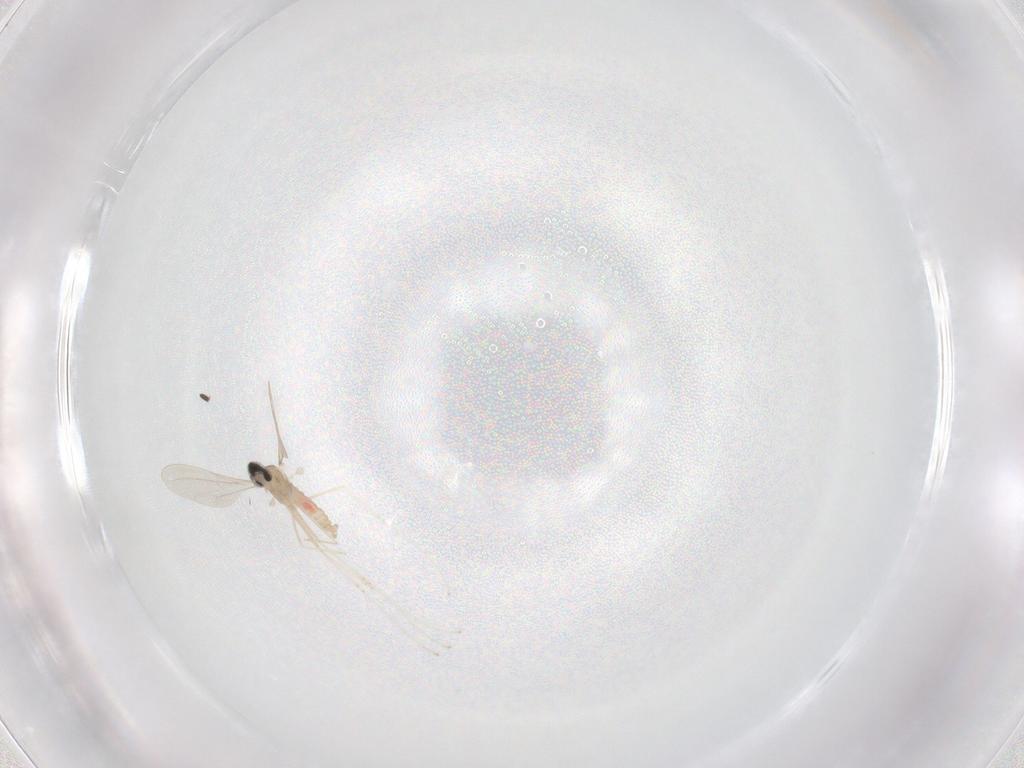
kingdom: Animalia
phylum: Arthropoda
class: Insecta
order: Diptera
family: Cecidomyiidae
